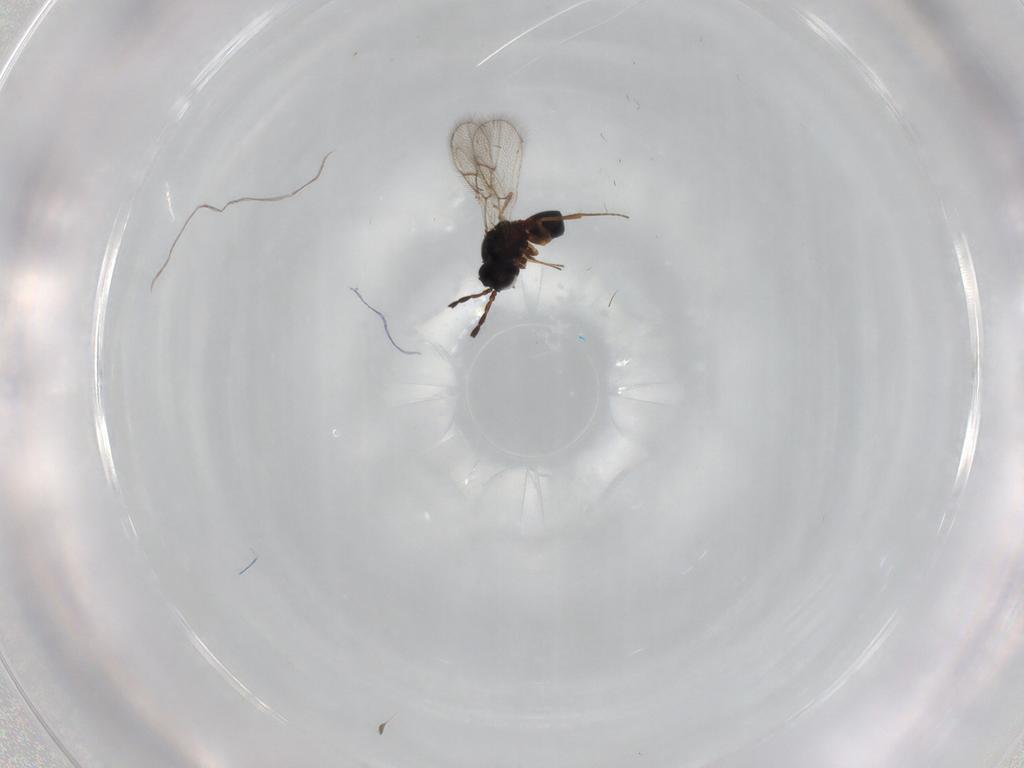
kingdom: Animalia
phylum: Arthropoda
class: Insecta
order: Hymenoptera
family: Figitidae
